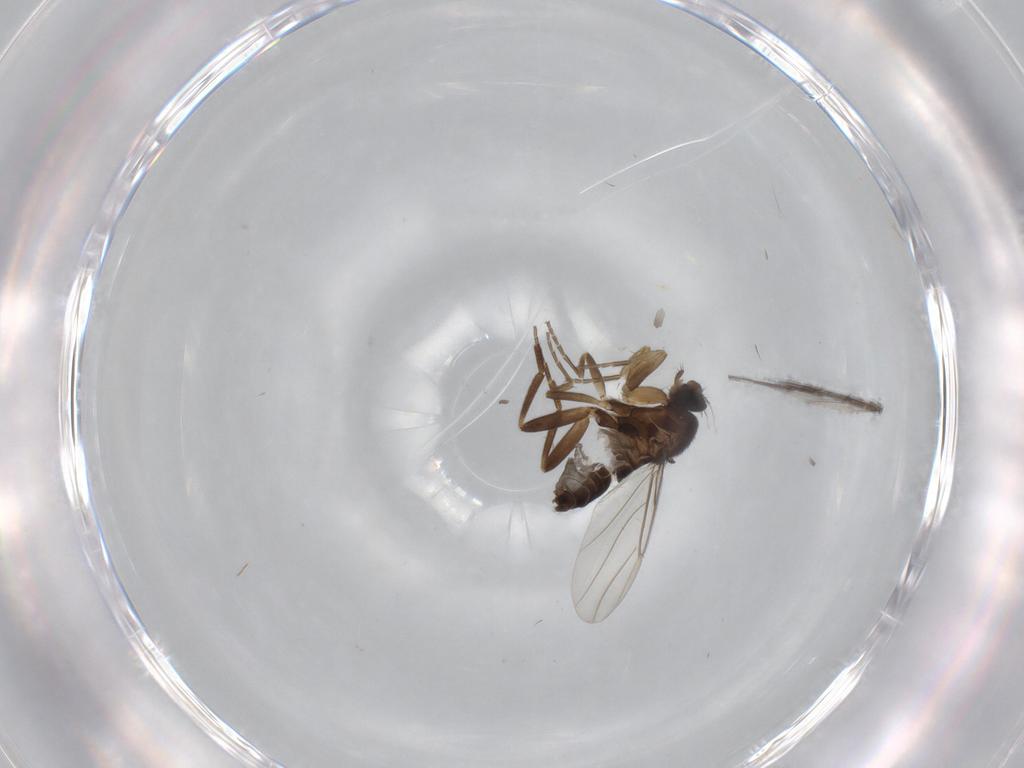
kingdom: Animalia
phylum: Arthropoda
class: Insecta
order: Diptera
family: Phoridae
